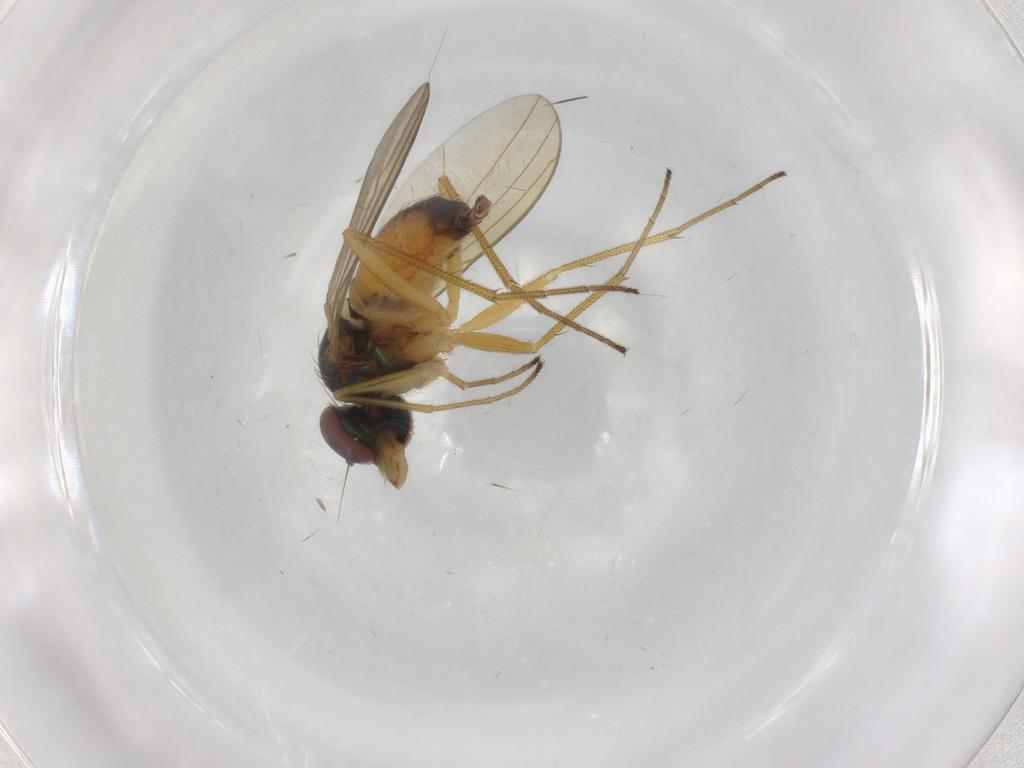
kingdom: Animalia
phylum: Arthropoda
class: Insecta
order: Diptera
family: Dolichopodidae
